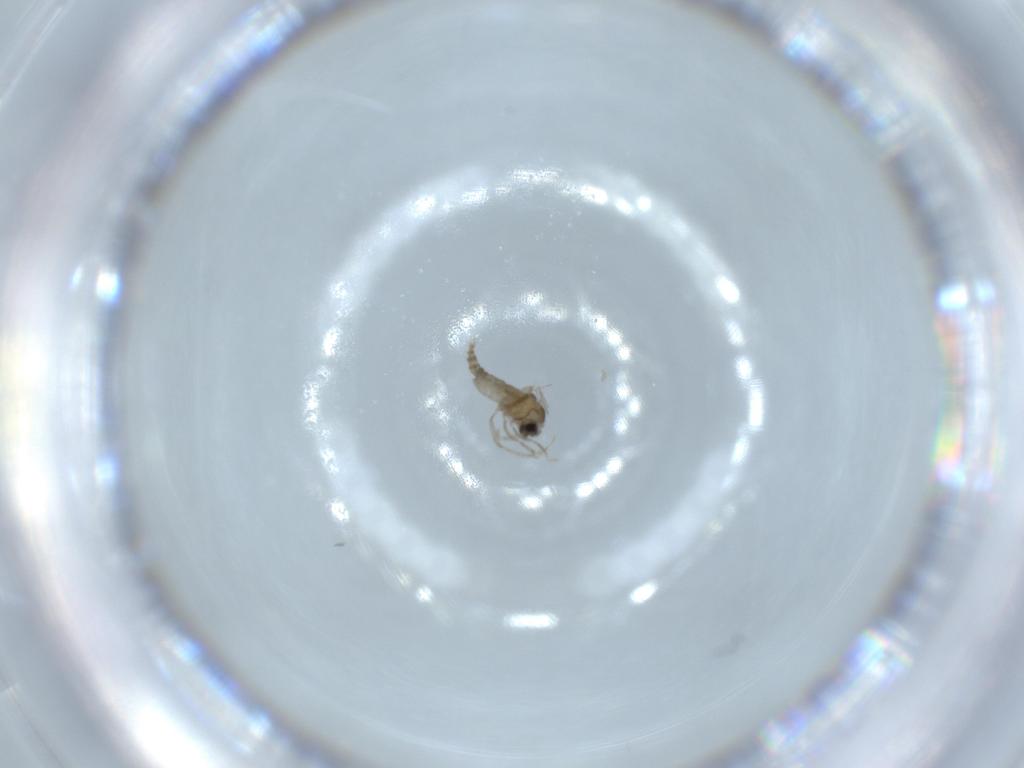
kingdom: Animalia
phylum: Arthropoda
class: Insecta
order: Diptera
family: Cecidomyiidae
